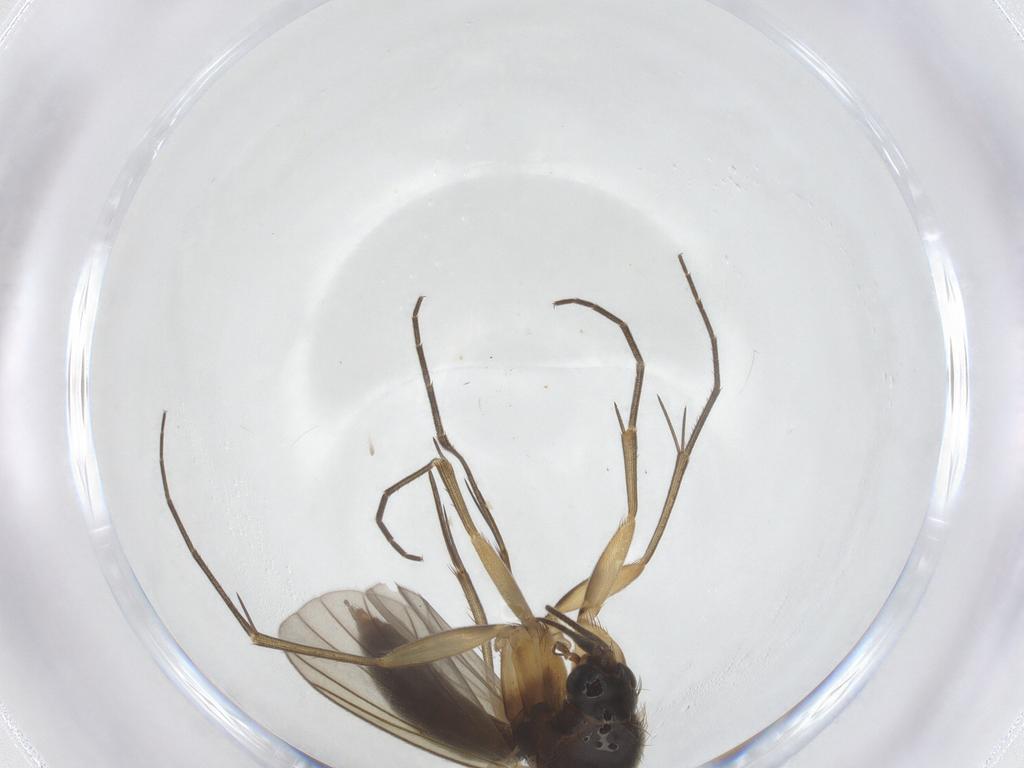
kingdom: Animalia
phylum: Arthropoda
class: Insecta
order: Diptera
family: Mycetophilidae
